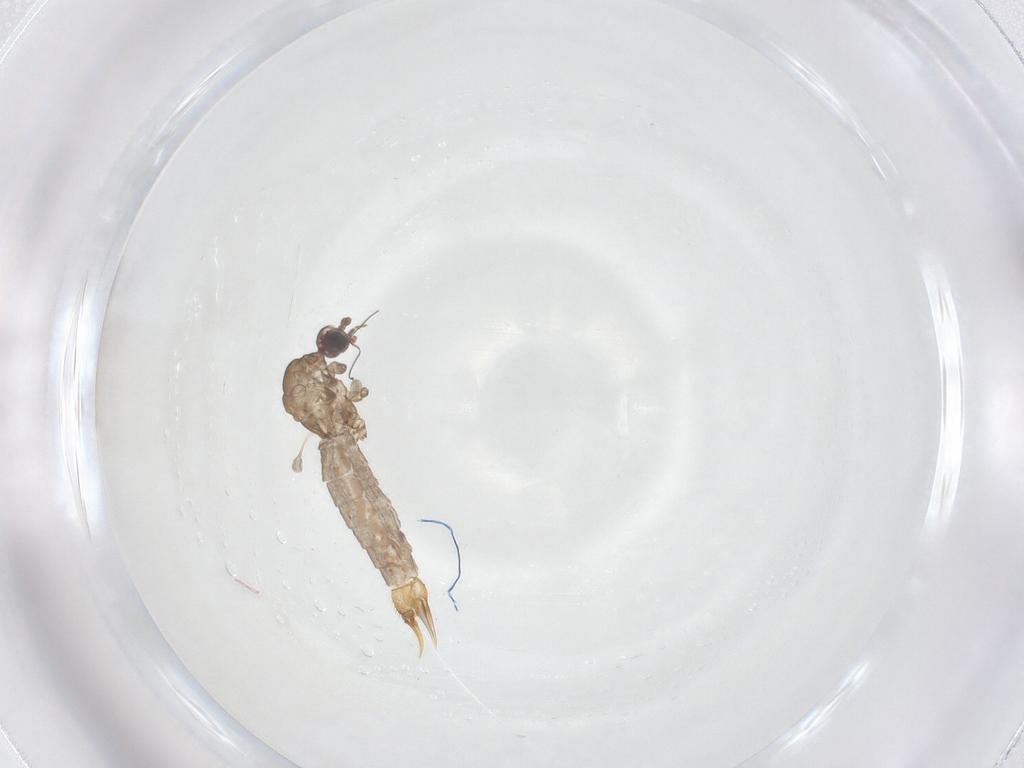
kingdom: Animalia
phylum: Arthropoda
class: Insecta
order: Diptera
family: Limoniidae
